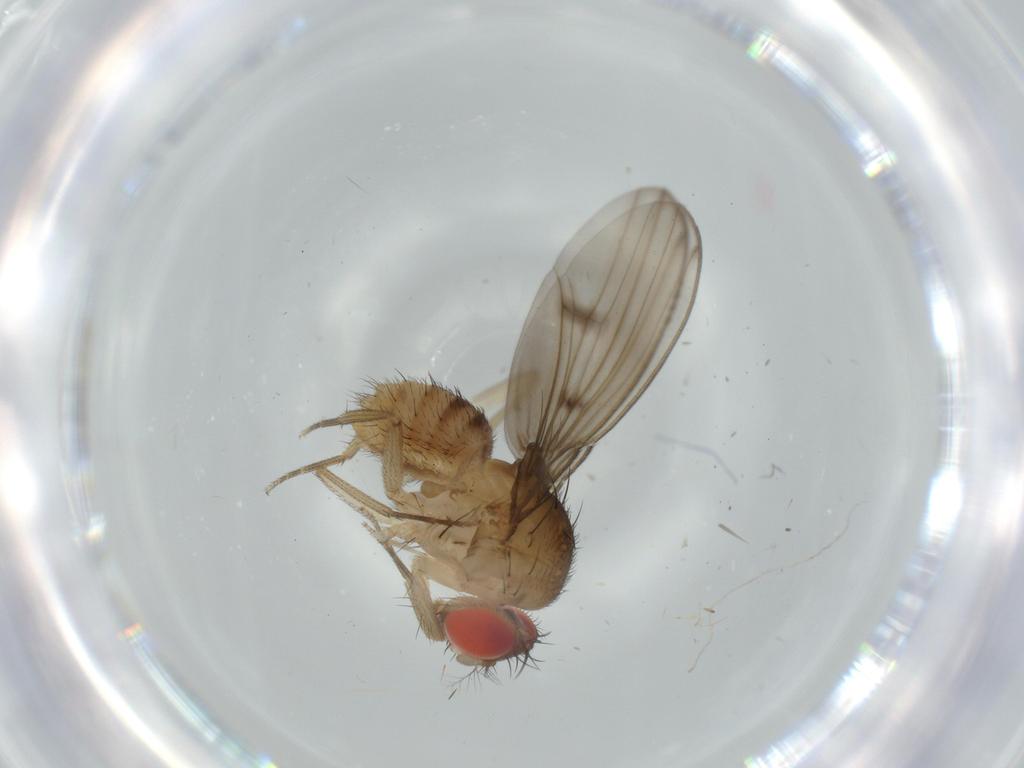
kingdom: Animalia
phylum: Arthropoda
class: Insecta
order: Diptera
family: Drosophilidae
